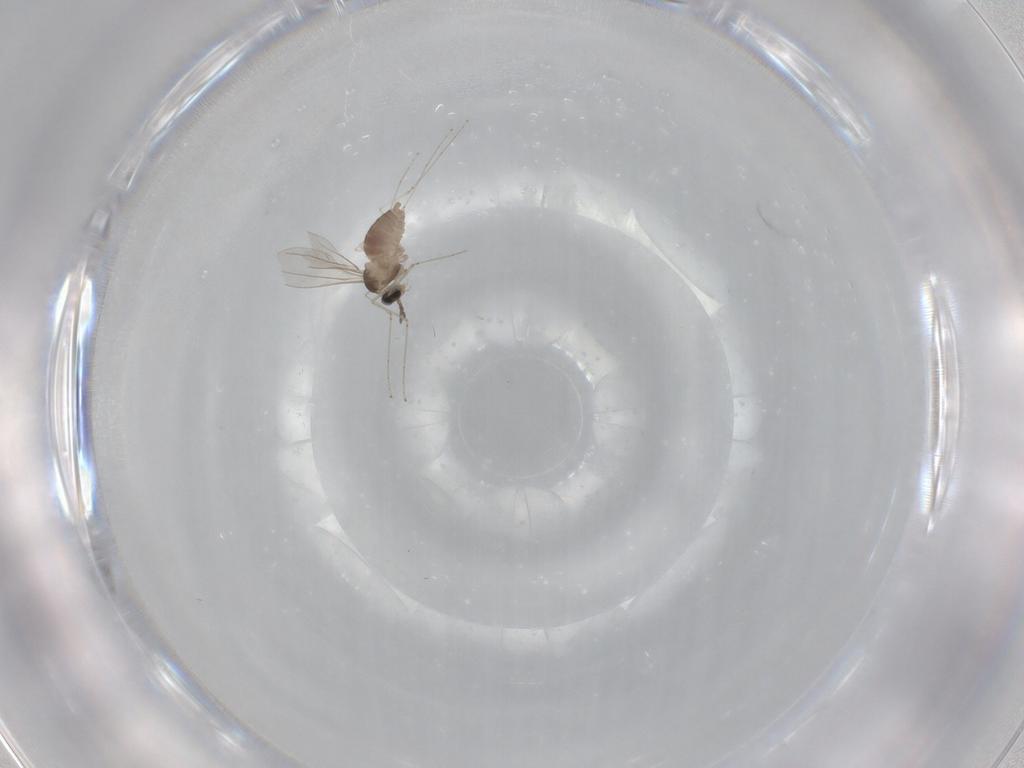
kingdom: Animalia
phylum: Arthropoda
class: Insecta
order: Diptera
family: Cecidomyiidae
